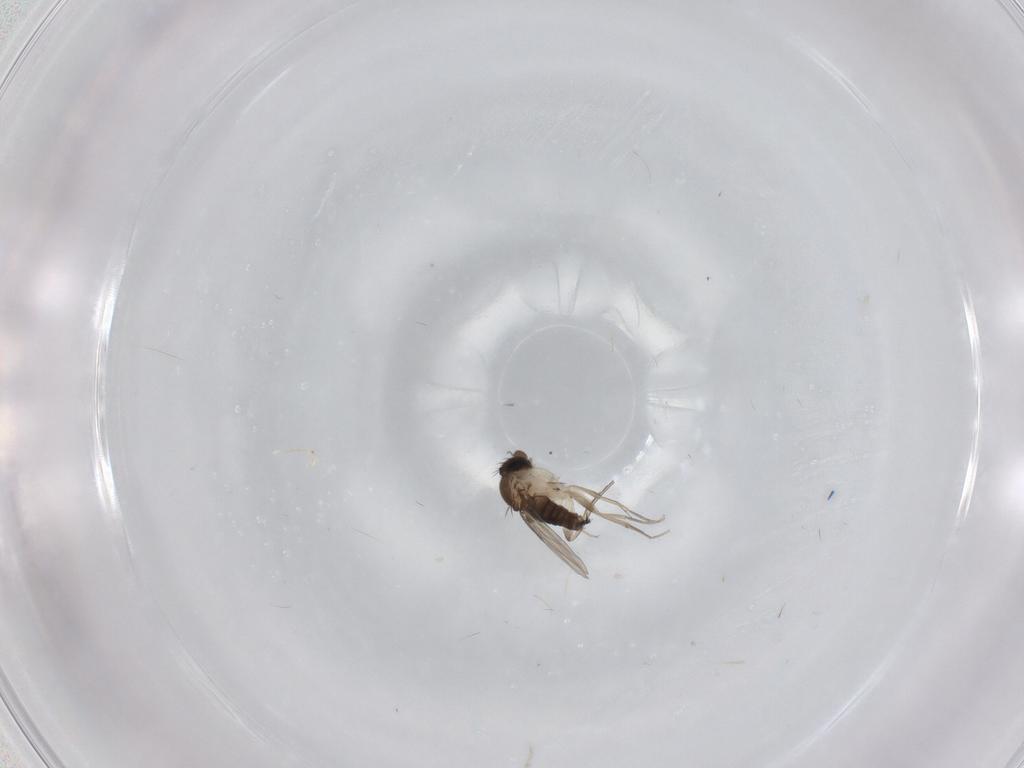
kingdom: Animalia
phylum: Arthropoda
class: Insecta
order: Diptera
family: Phoridae
